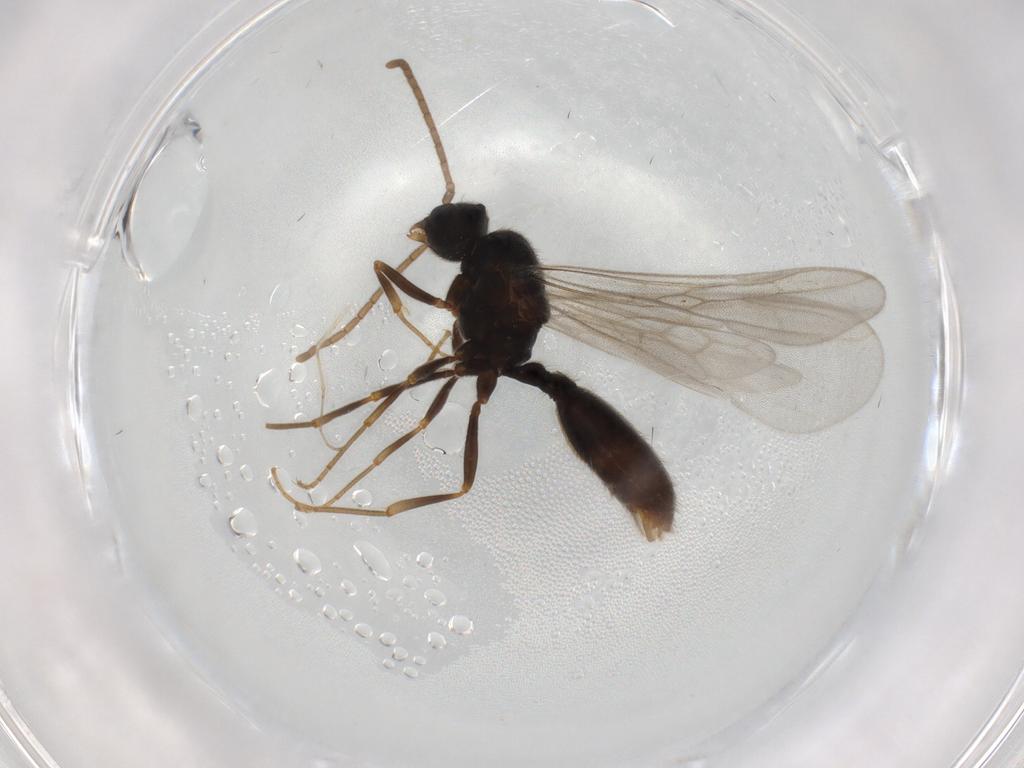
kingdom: Animalia
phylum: Arthropoda
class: Insecta
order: Hymenoptera
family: Formicidae
